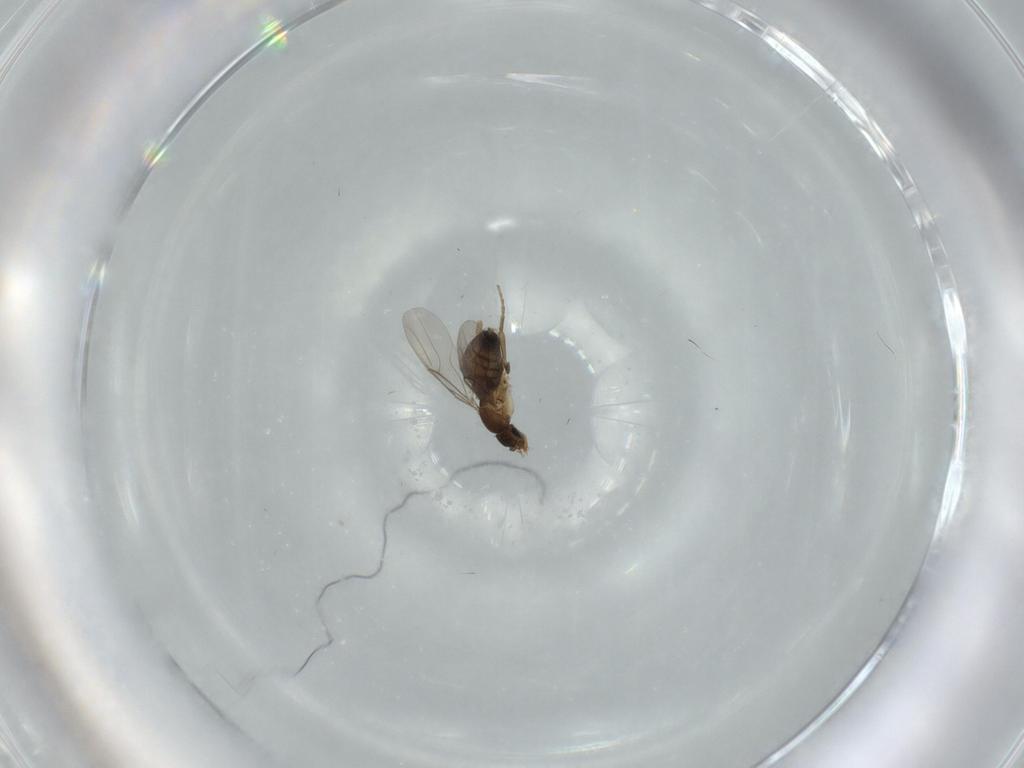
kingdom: Animalia
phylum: Arthropoda
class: Insecta
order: Diptera
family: Phoridae
